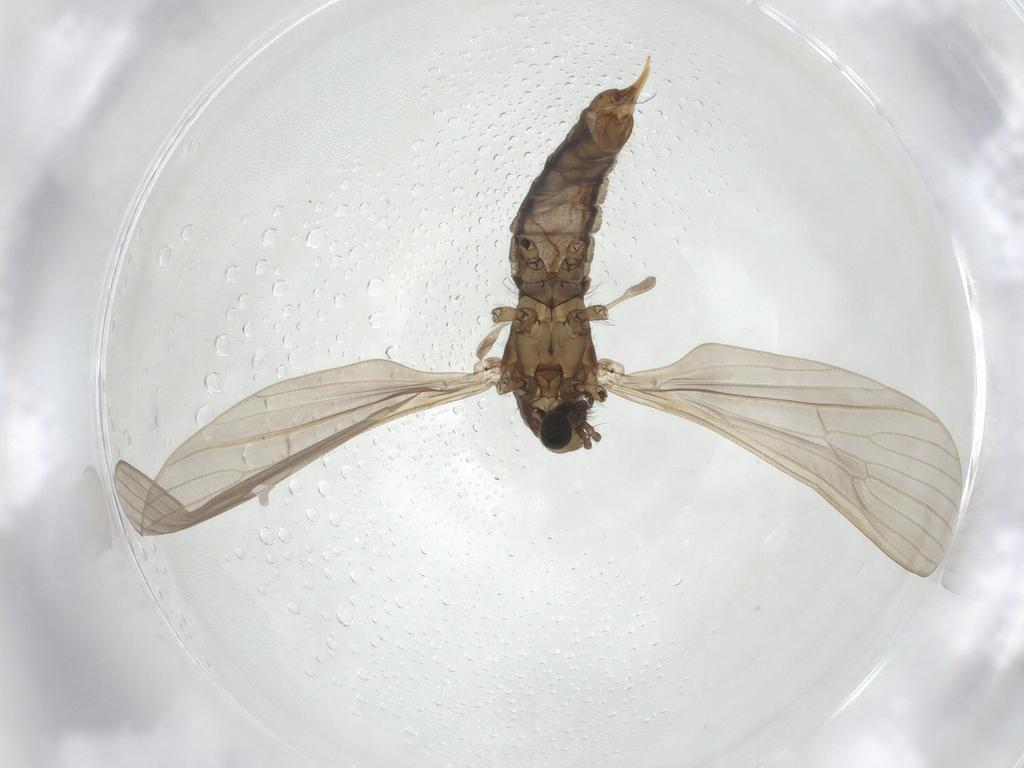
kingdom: Animalia
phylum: Arthropoda
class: Insecta
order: Diptera
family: Limoniidae
